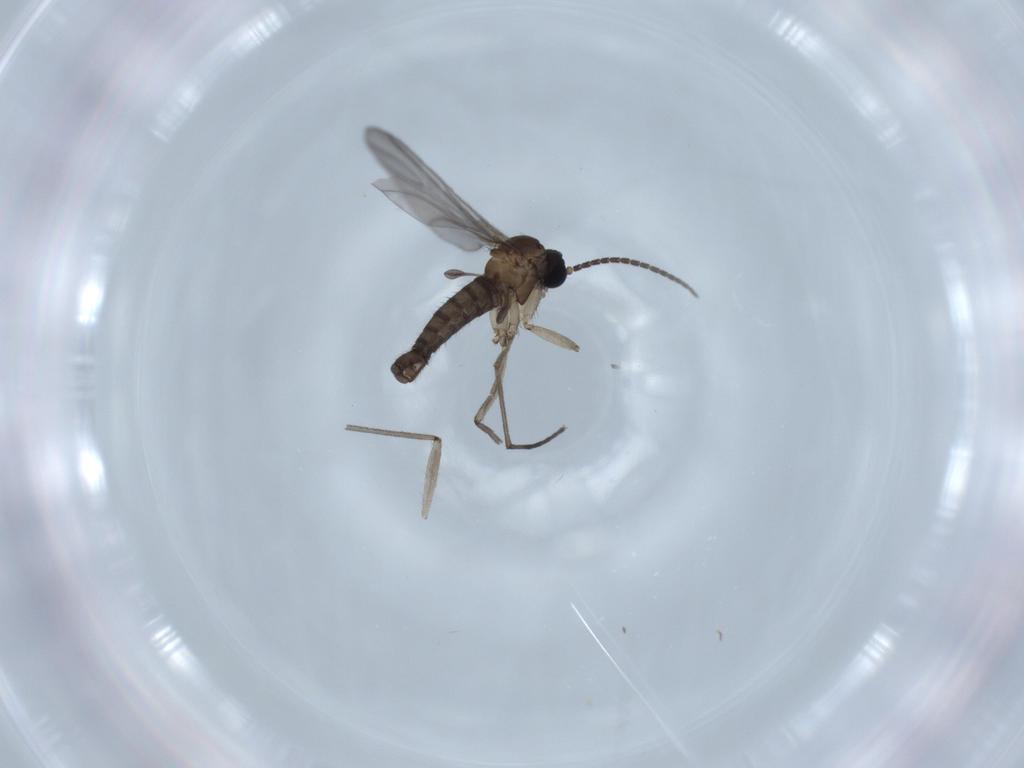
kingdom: Animalia
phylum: Arthropoda
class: Insecta
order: Diptera
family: Sciaridae
